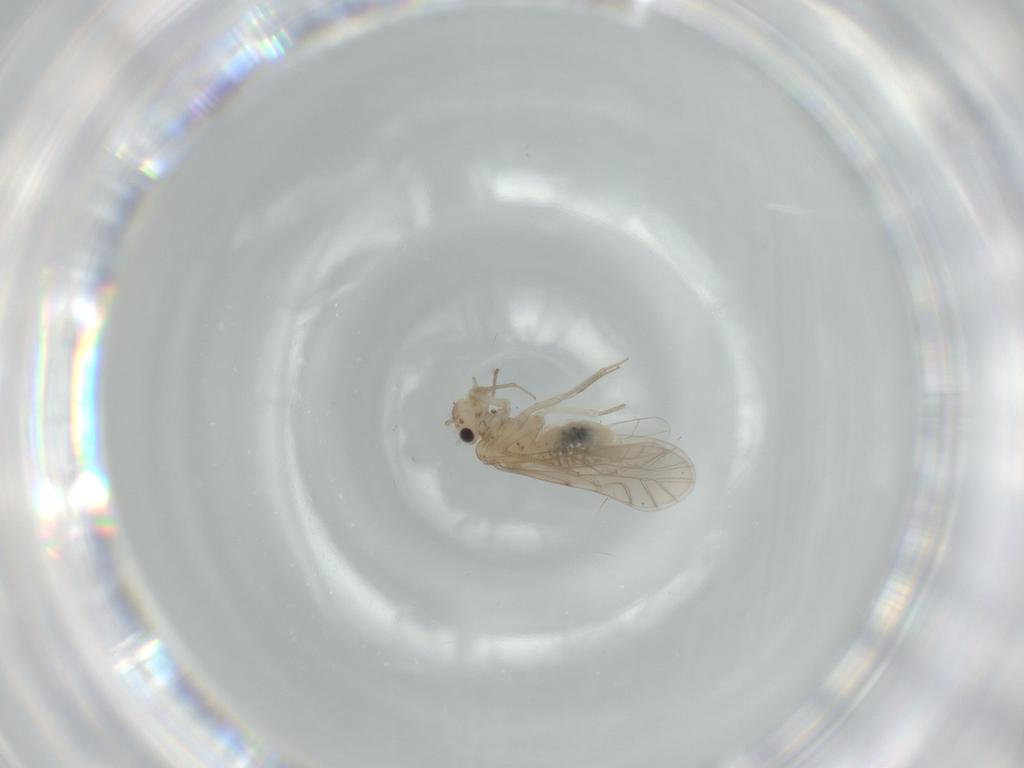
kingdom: Animalia
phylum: Arthropoda
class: Insecta
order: Psocodea
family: Lachesillidae
